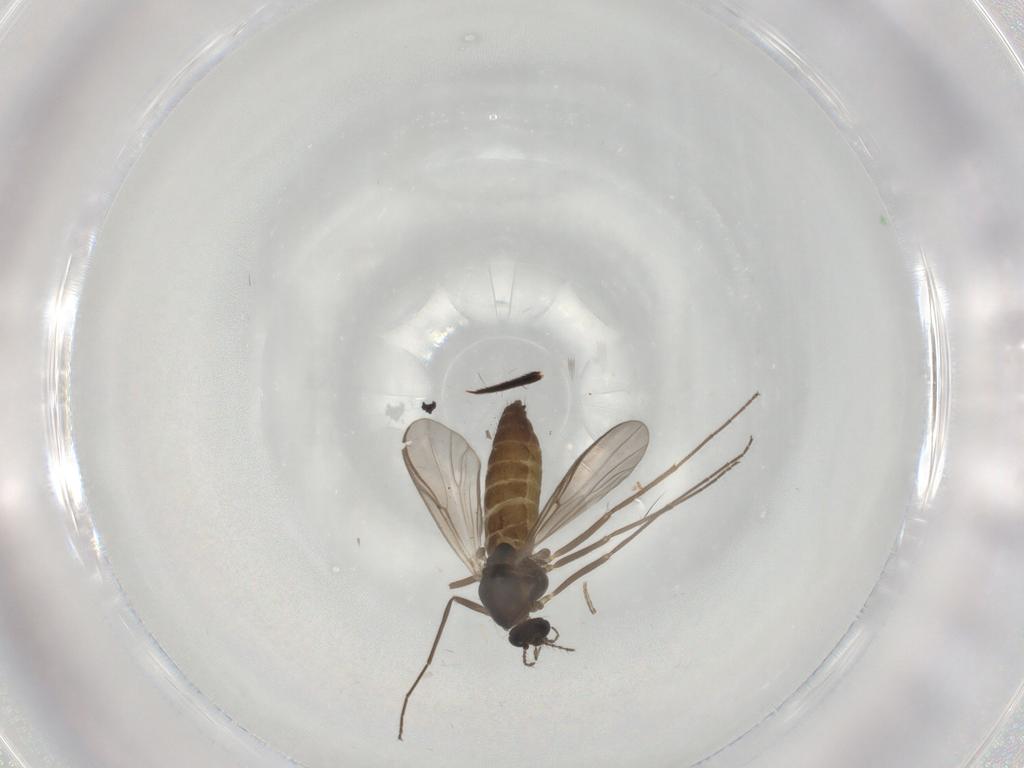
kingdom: Animalia
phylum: Arthropoda
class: Insecta
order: Diptera
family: Chironomidae
